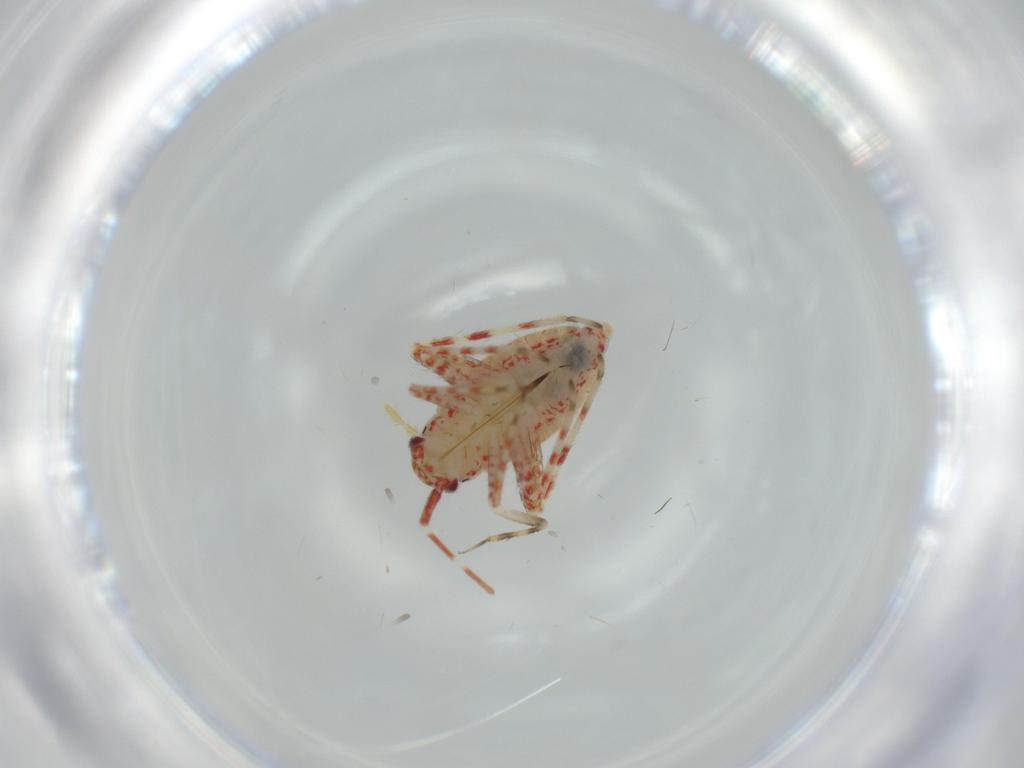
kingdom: Animalia
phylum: Arthropoda
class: Insecta
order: Hemiptera
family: Miridae
